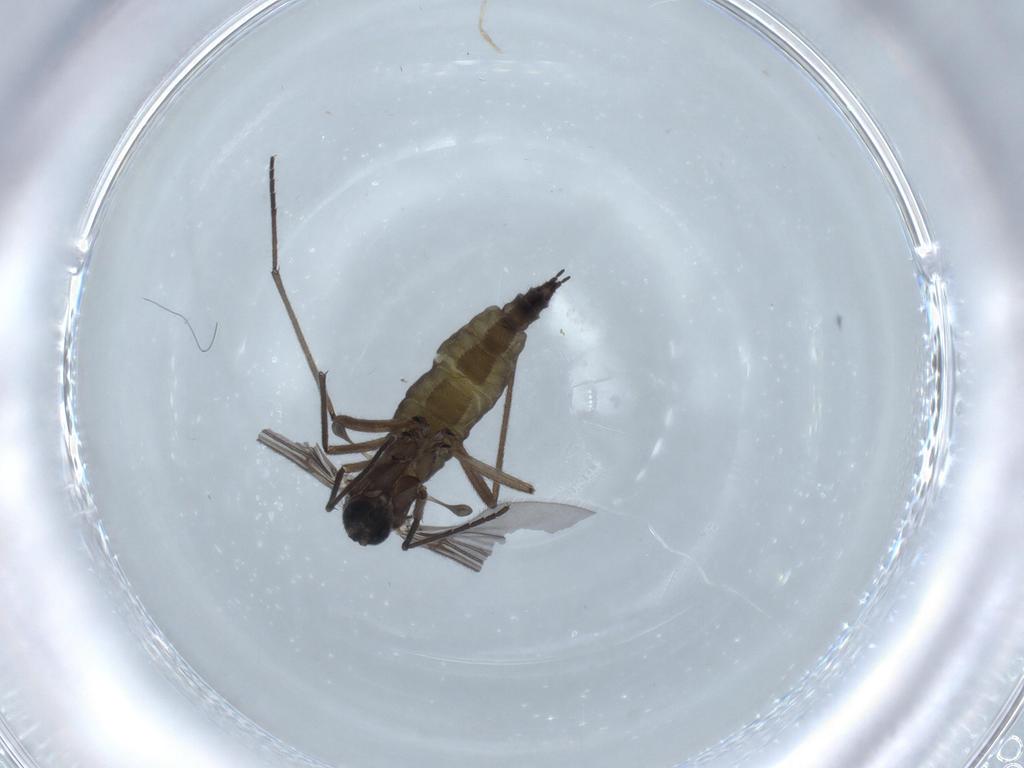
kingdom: Animalia
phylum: Arthropoda
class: Insecta
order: Diptera
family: Sciaridae
